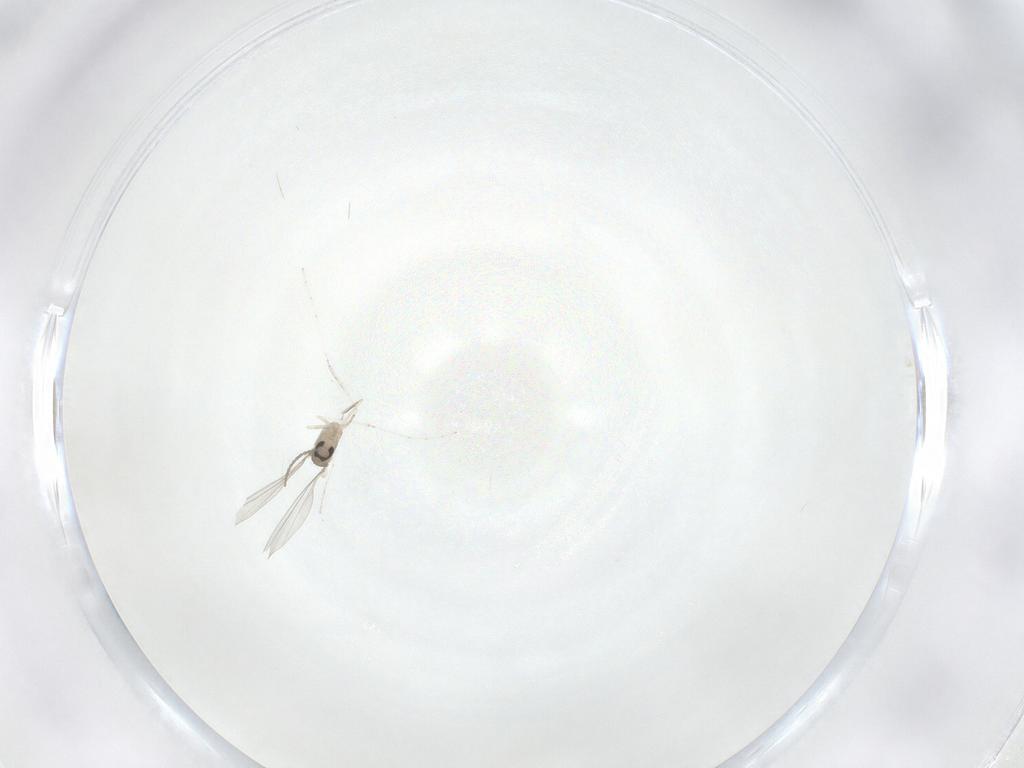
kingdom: Animalia
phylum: Arthropoda
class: Insecta
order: Diptera
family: Cecidomyiidae
